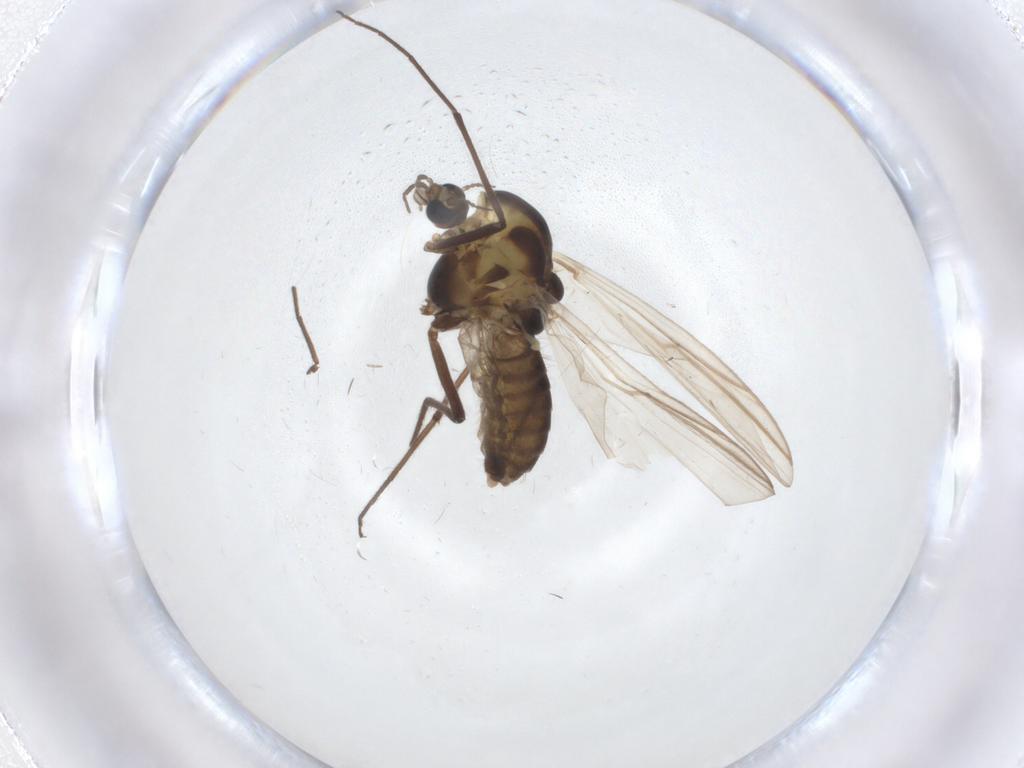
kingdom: Animalia
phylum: Arthropoda
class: Insecta
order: Diptera
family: Chironomidae
